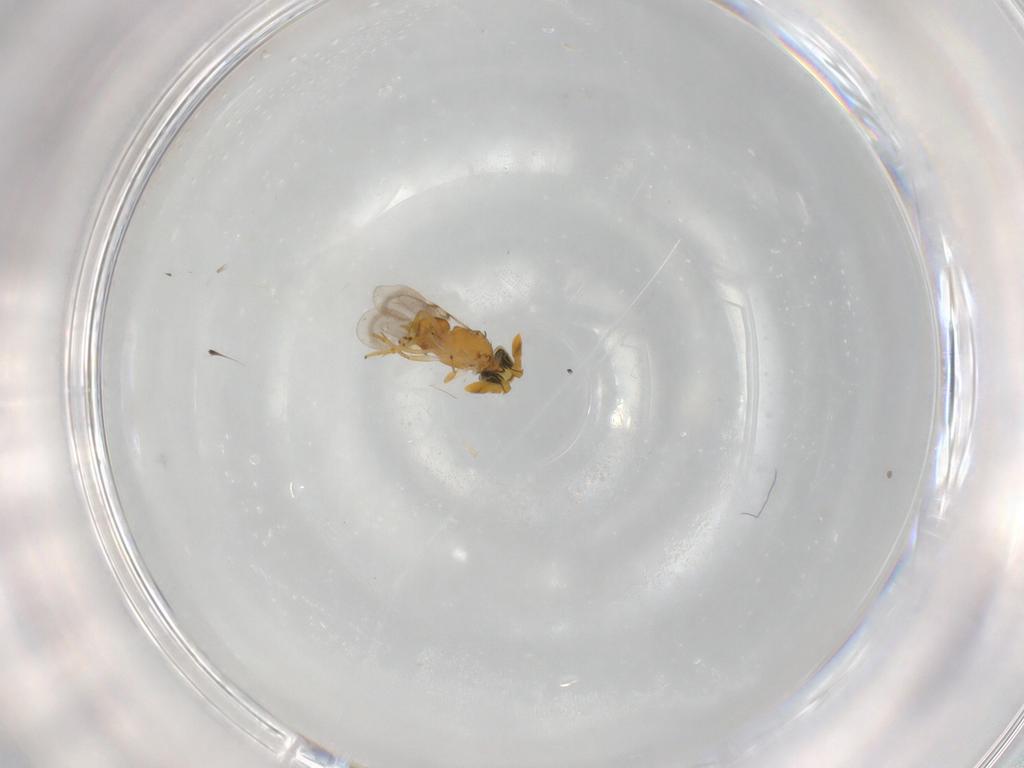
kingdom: Animalia
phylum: Arthropoda
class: Insecta
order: Hymenoptera
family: Encyrtidae
